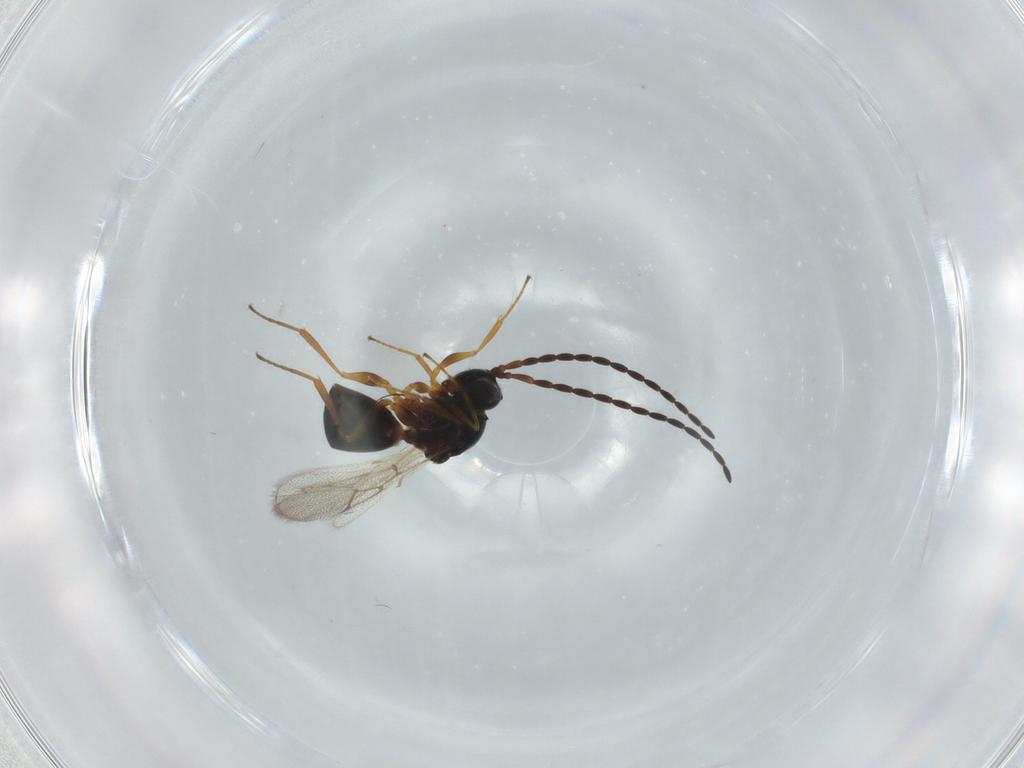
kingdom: Animalia
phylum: Arthropoda
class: Insecta
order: Hymenoptera
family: Figitidae
